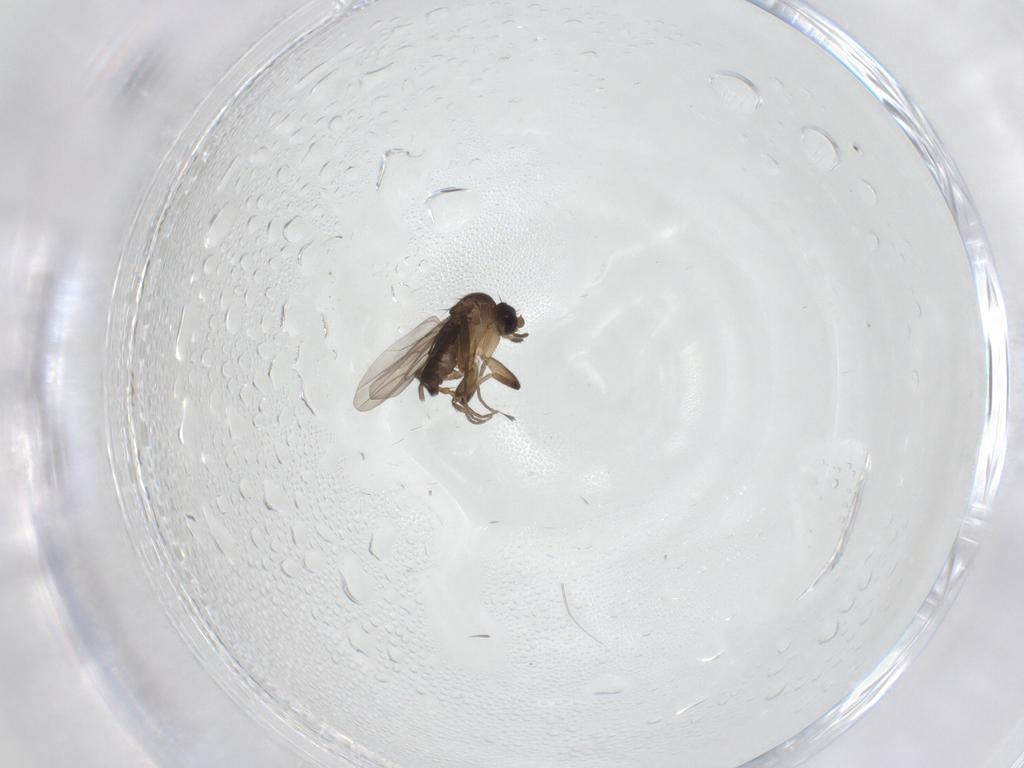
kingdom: Animalia
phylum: Arthropoda
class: Insecta
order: Diptera
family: Phoridae
